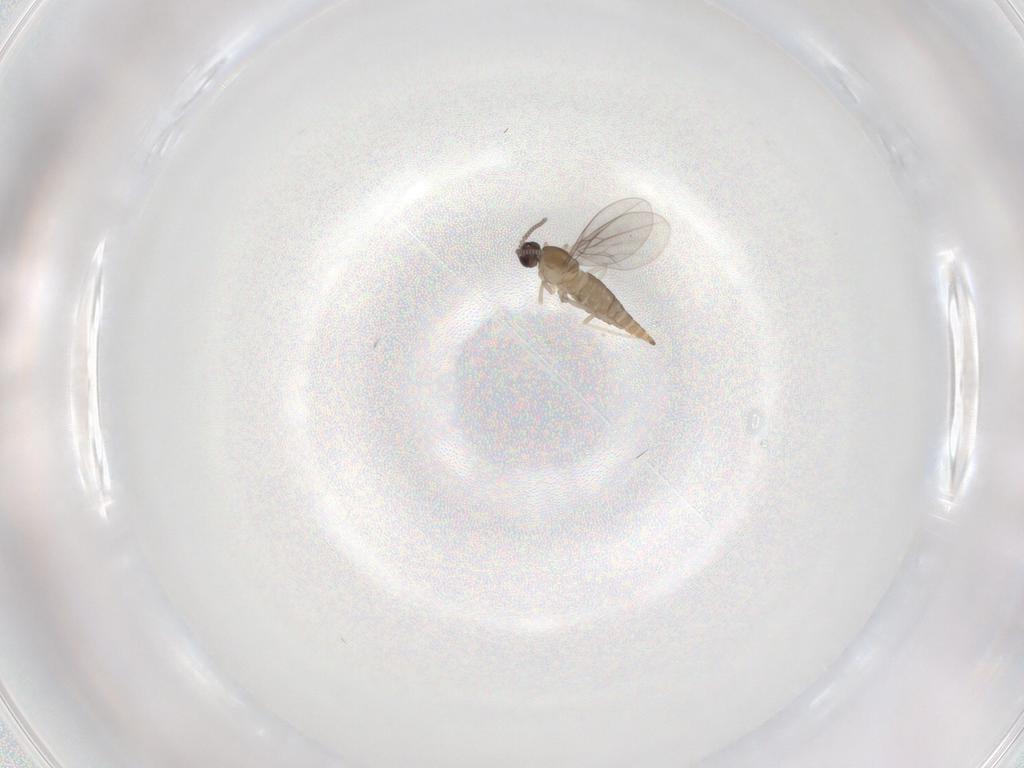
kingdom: Animalia
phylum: Arthropoda
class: Insecta
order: Diptera
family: Cecidomyiidae
